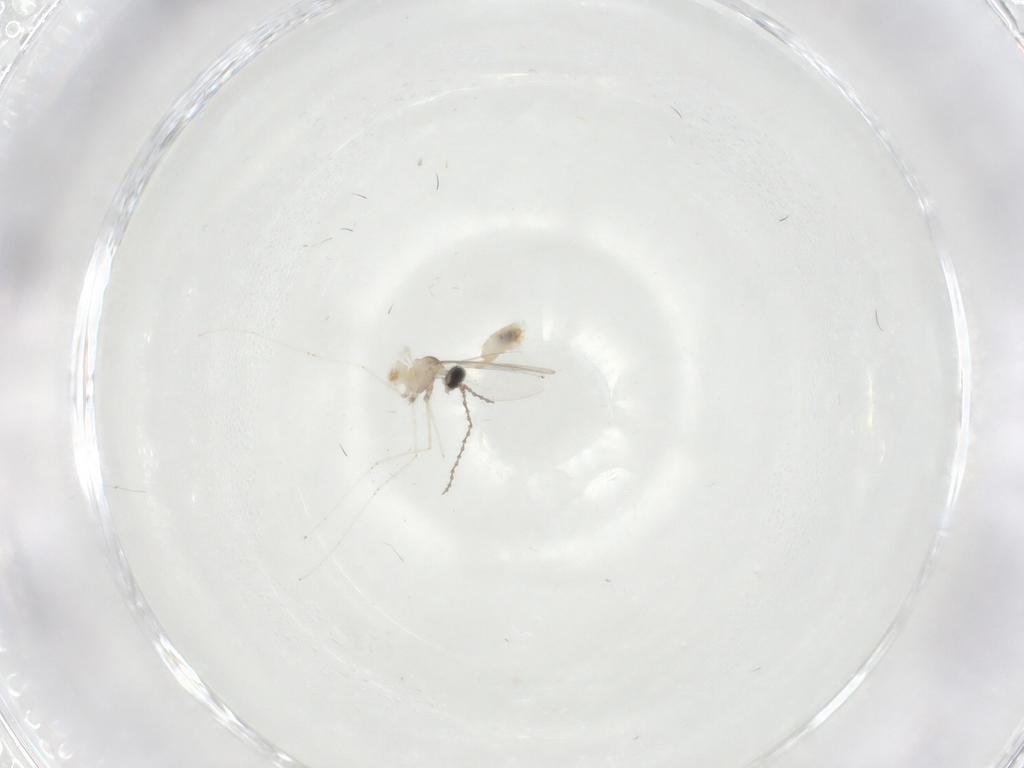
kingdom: Animalia
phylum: Arthropoda
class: Insecta
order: Diptera
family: Cecidomyiidae
